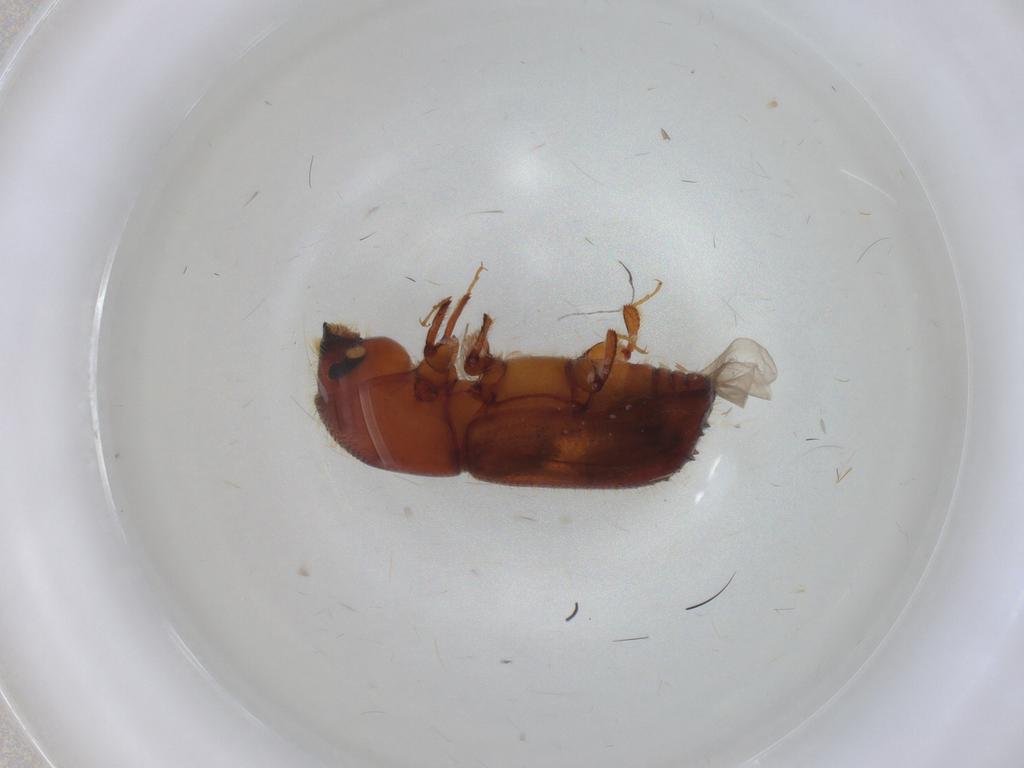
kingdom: Animalia
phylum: Arthropoda
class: Insecta
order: Coleoptera
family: Curculionidae
